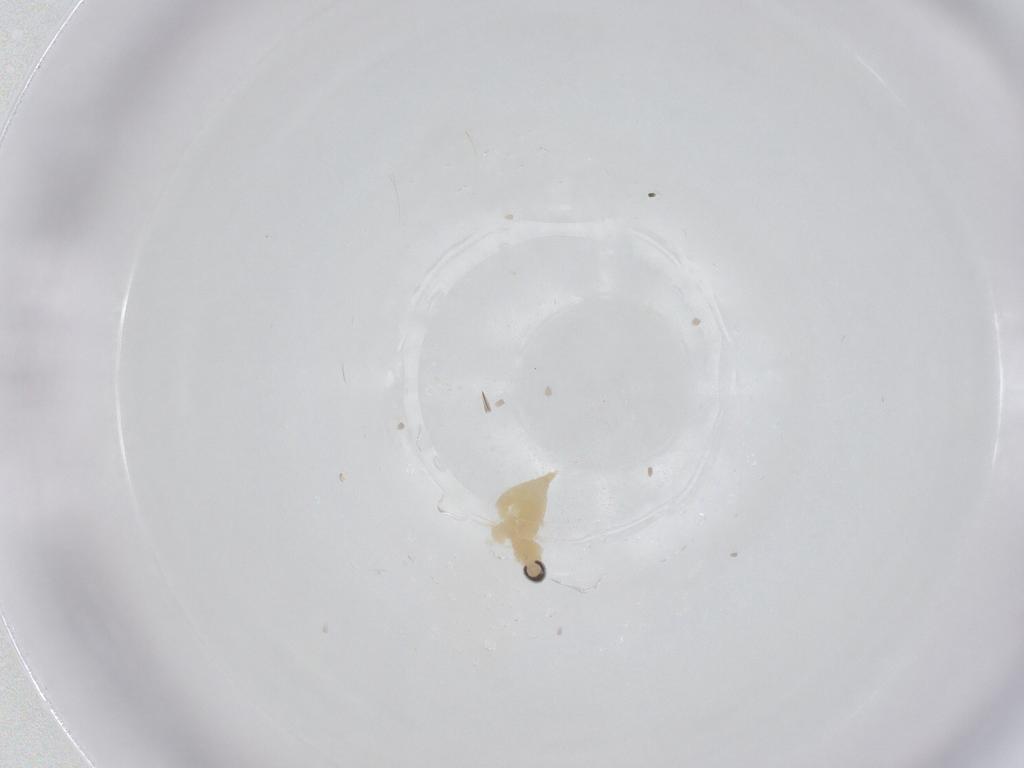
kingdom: Animalia
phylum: Arthropoda
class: Insecta
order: Diptera
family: Cecidomyiidae
